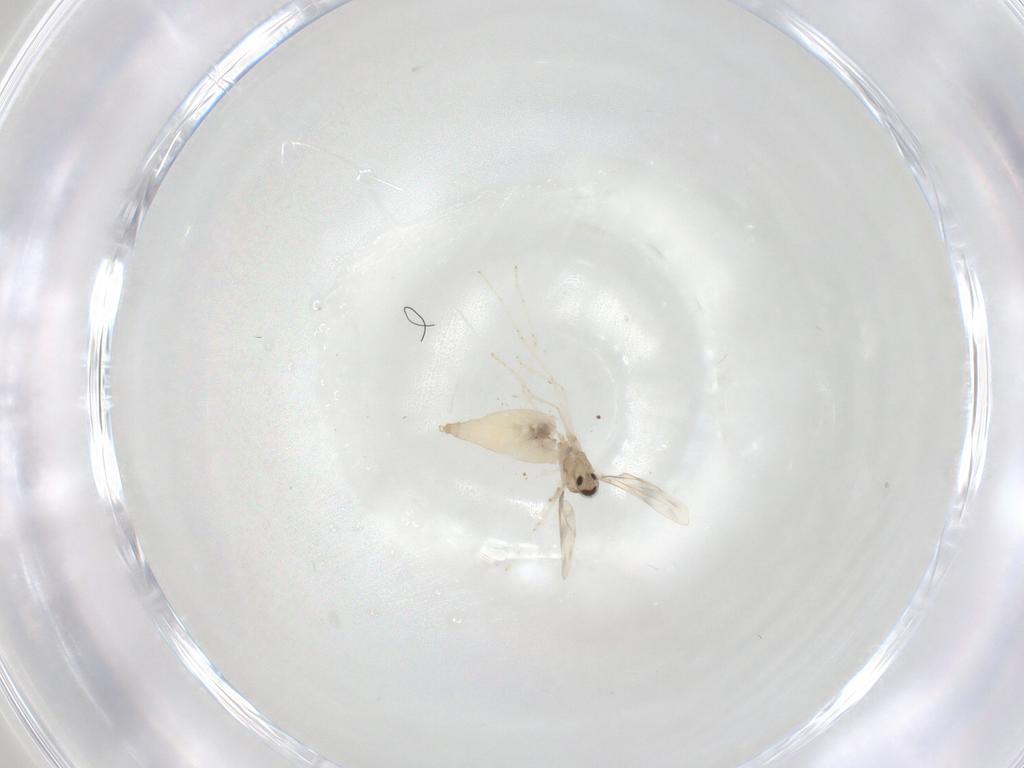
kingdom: Animalia
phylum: Arthropoda
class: Insecta
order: Diptera
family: Cecidomyiidae
